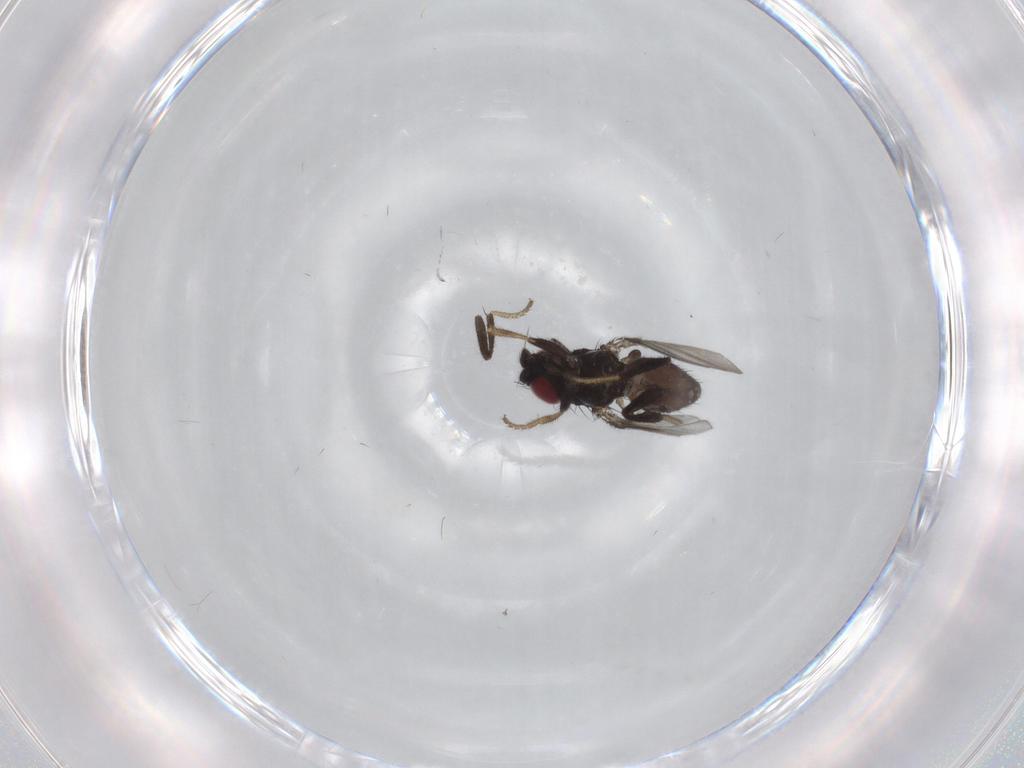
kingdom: Animalia
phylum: Arthropoda
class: Insecta
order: Diptera
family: Milichiidae
